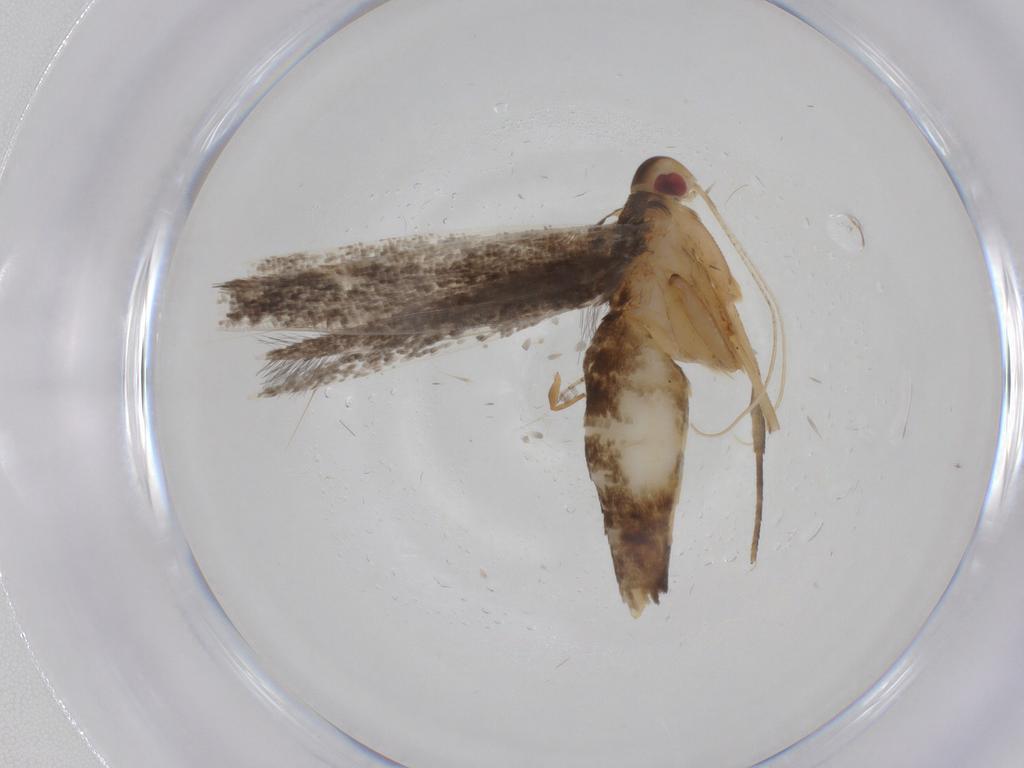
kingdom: Animalia
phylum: Arthropoda
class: Insecta
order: Lepidoptera
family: Cosmopterigidae
